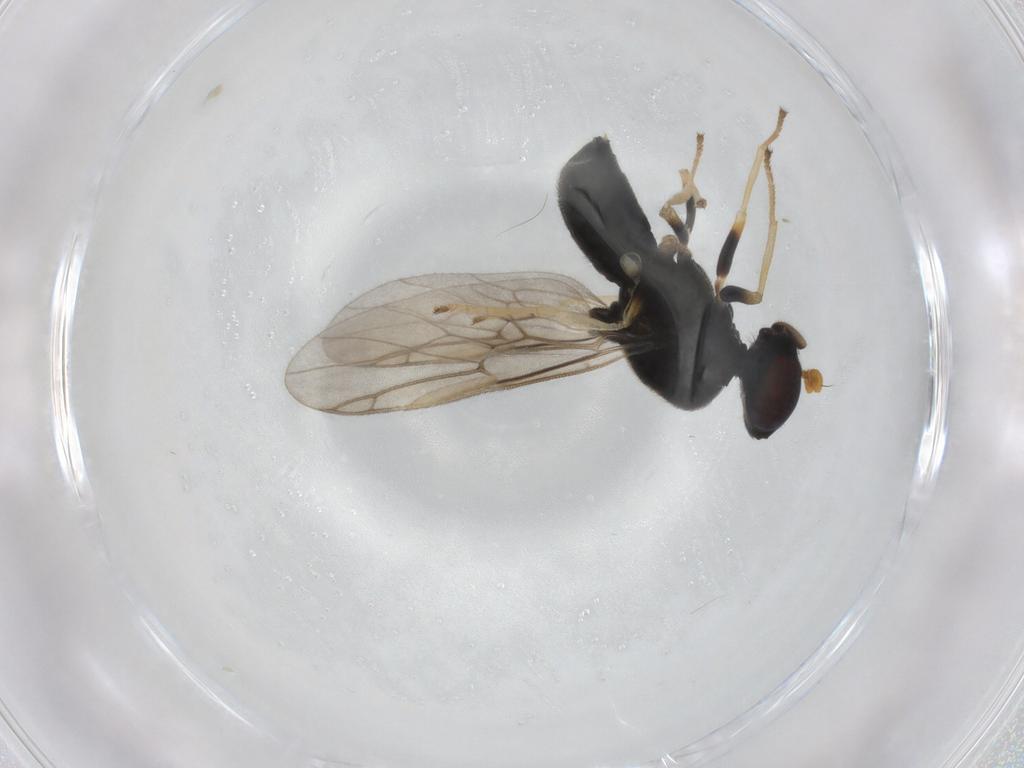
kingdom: Animalia
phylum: Arthropoda
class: Insecta
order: Diptera
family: Stratiomyidae
